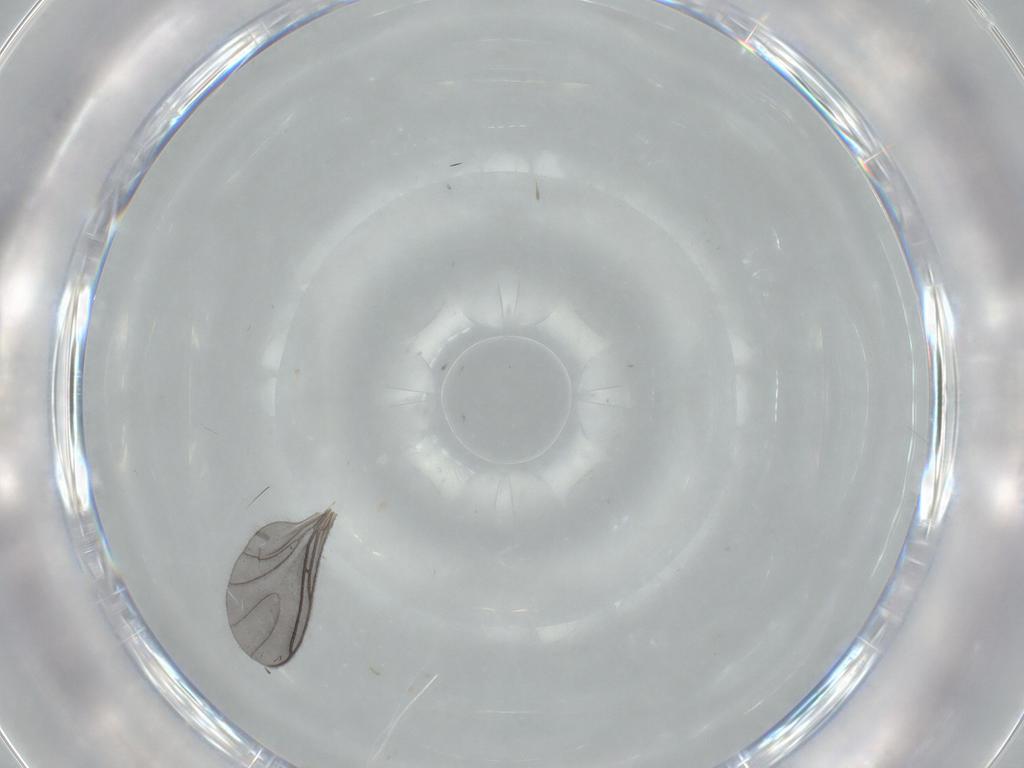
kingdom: Animalia
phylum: Arthropoda
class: Insecta
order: Diptera
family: Sciaridae
